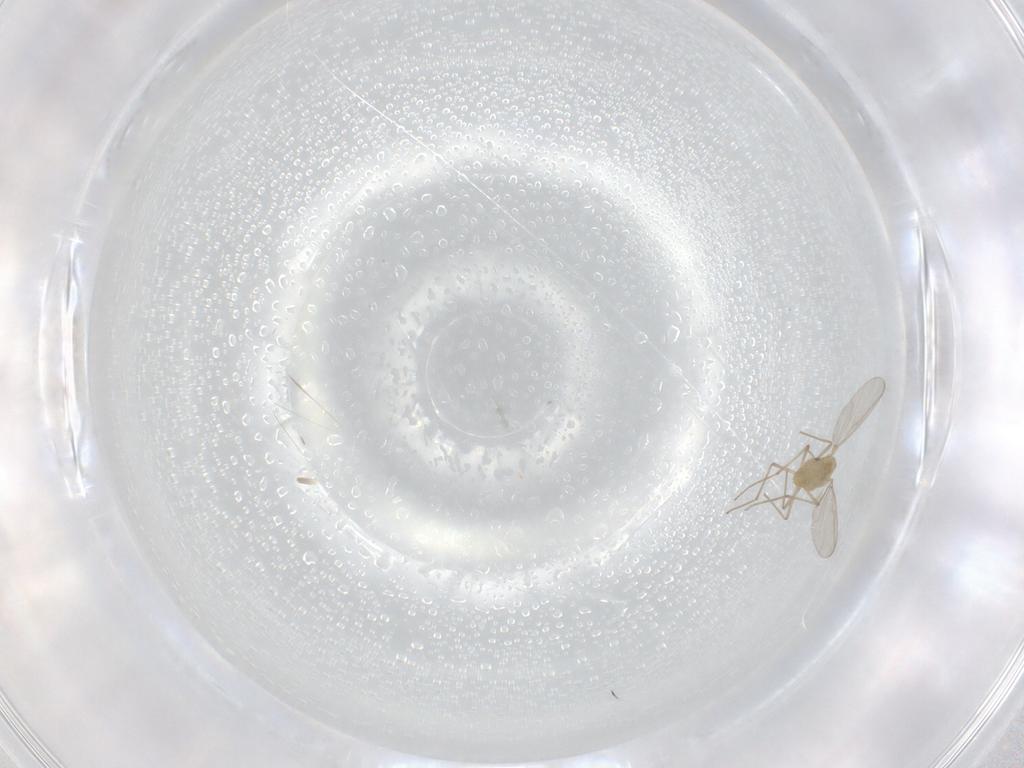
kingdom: Animalia
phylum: Arthropoda
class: Insecta
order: Diptera
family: Chironomidae
